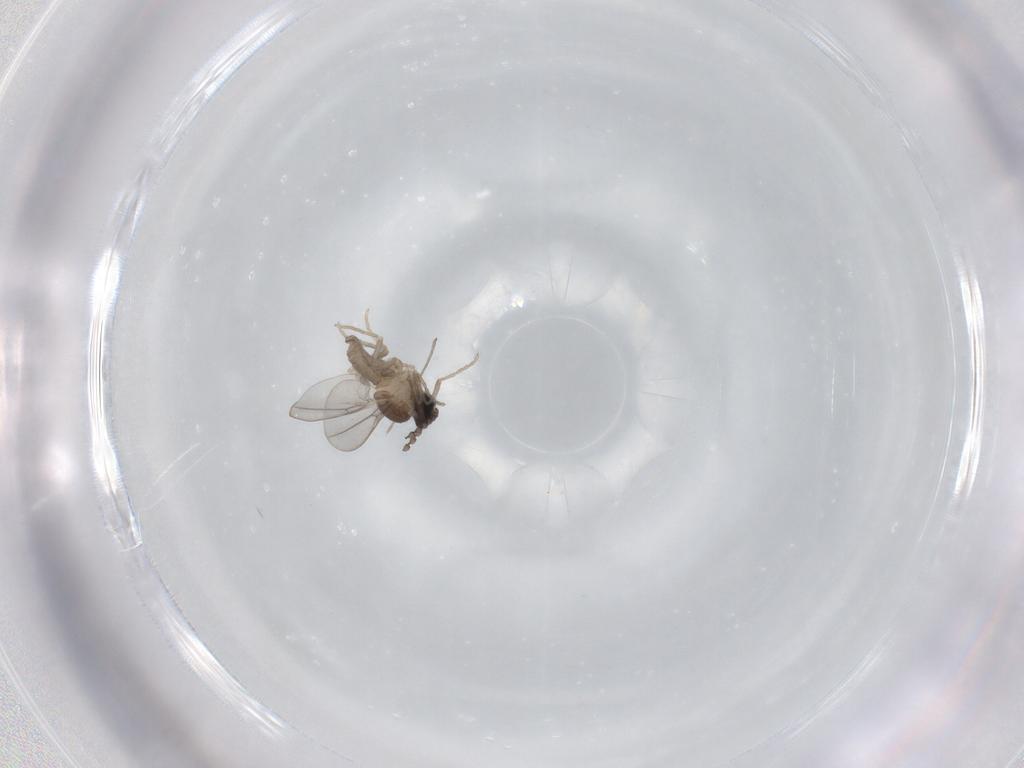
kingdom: Animalia
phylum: Arthropoda
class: Insecta
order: Diptera
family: Cecidomyiidae
